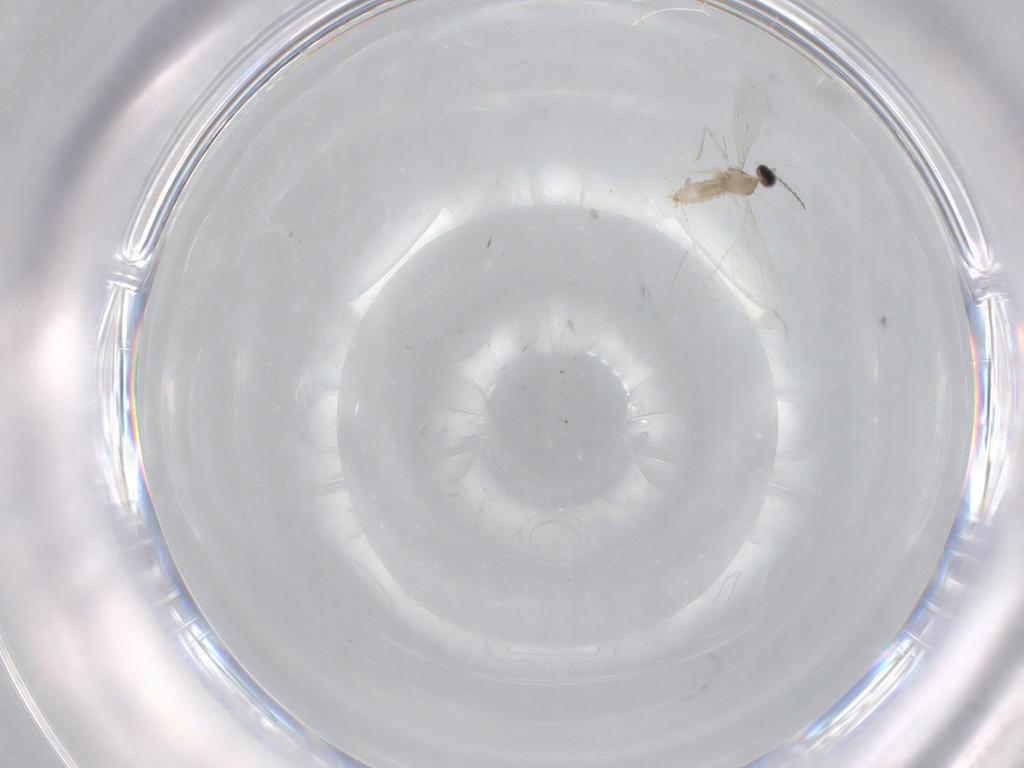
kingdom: Animalia
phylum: Arthropoda
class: Insecta
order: Diptera
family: Cecidomyiidae
